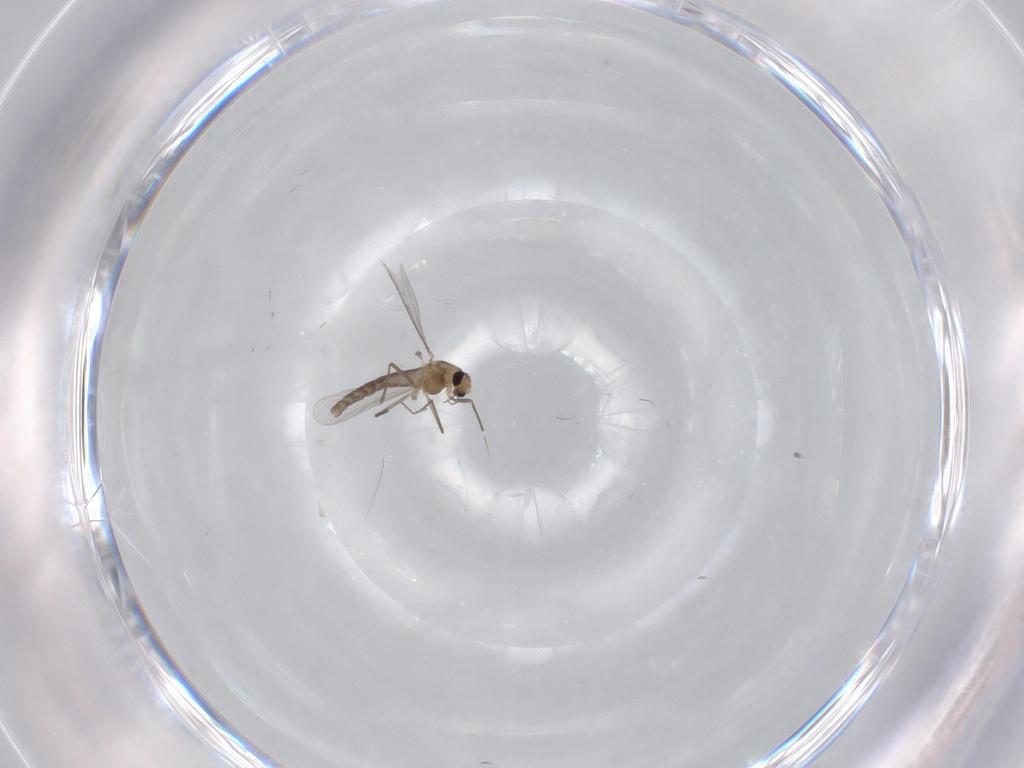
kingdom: Animalia
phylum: Arthropoda
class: Insecta
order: Diptera
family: Chironomidae
